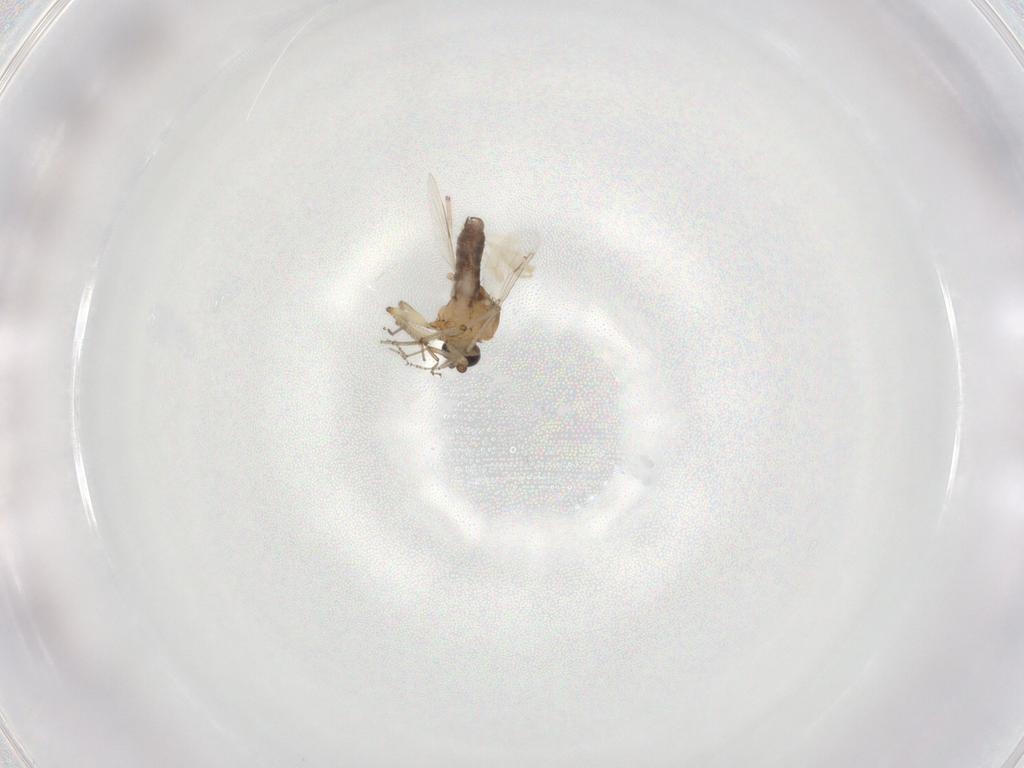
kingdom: Animalia
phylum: Arthropoda
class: Insecta
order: Diptera
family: Ceratopogonidae
